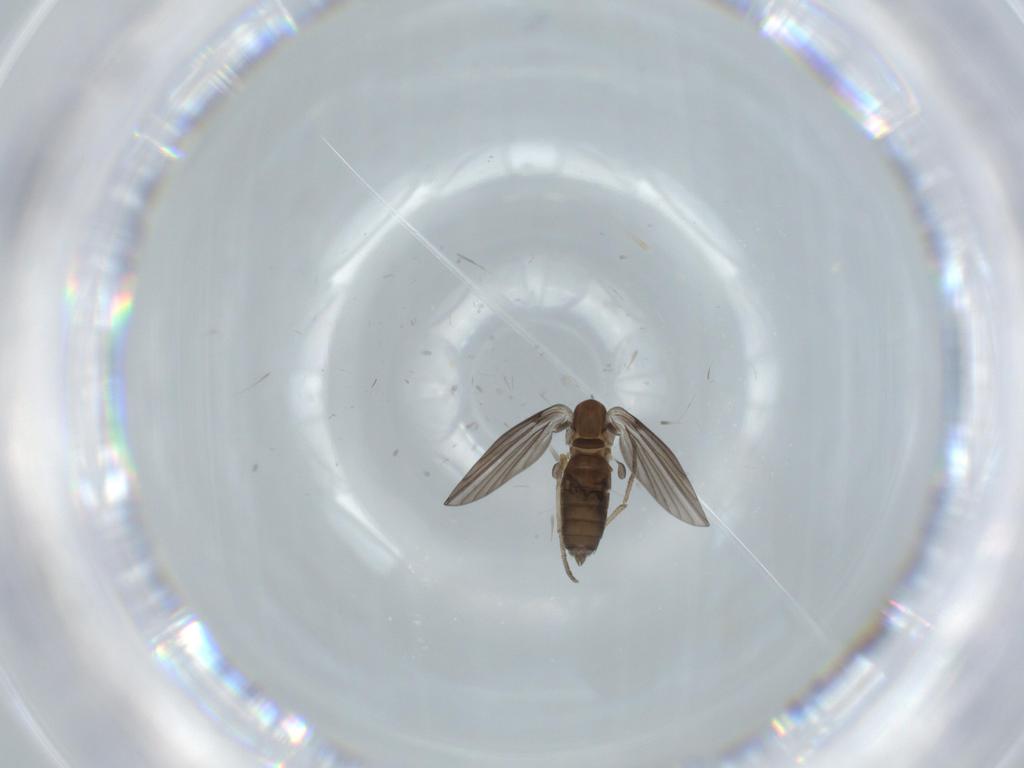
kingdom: Animalia
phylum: Arthropoda
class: Insecta
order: Diptera
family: Psychodidae
